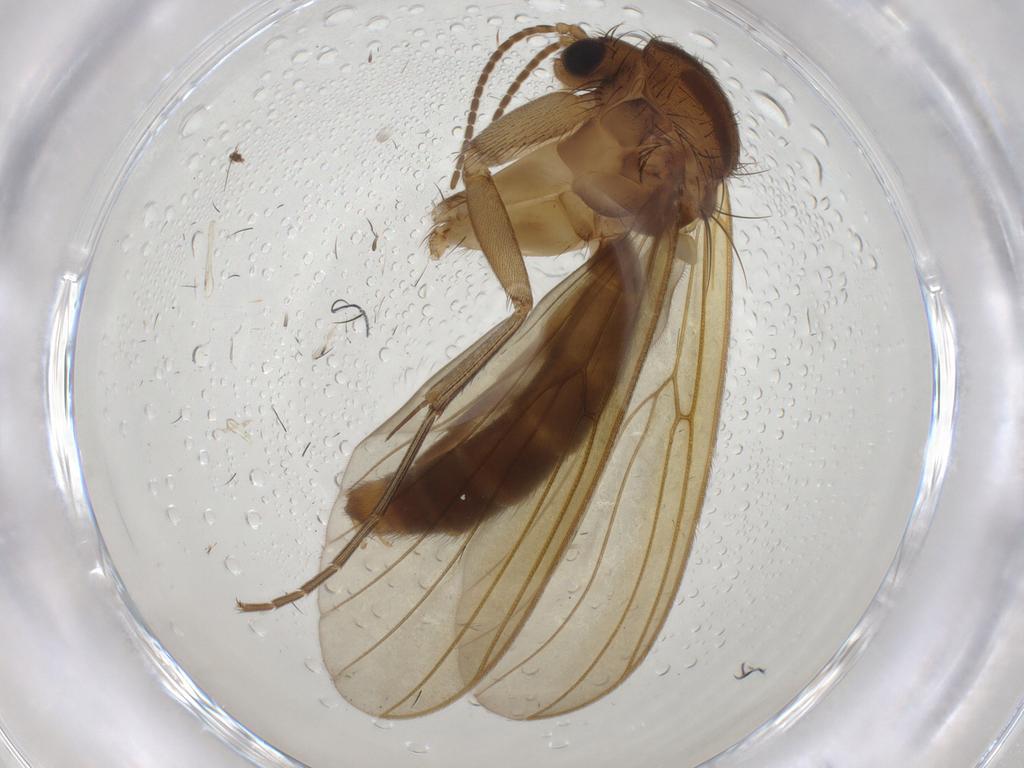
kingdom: Animalia
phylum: Arthropoda
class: Insecta
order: Diptera
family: Mycetophilidae
